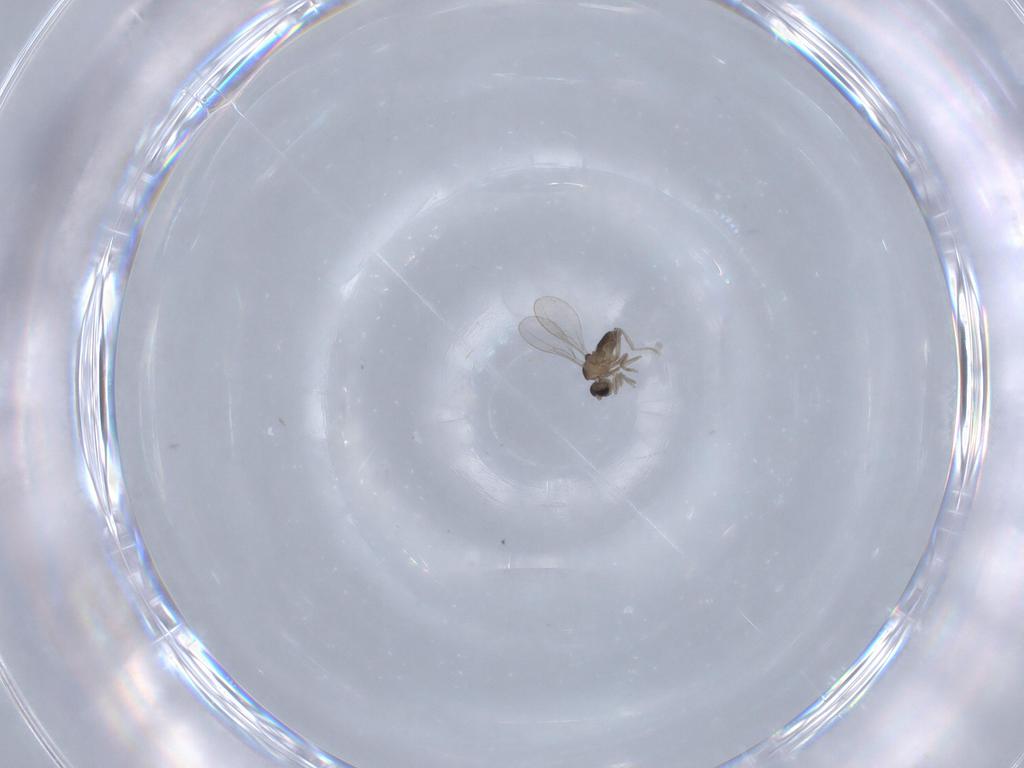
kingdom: Animalia
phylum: Arthropoda
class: Insecta
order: Diptera
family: Cecidomyiidae
